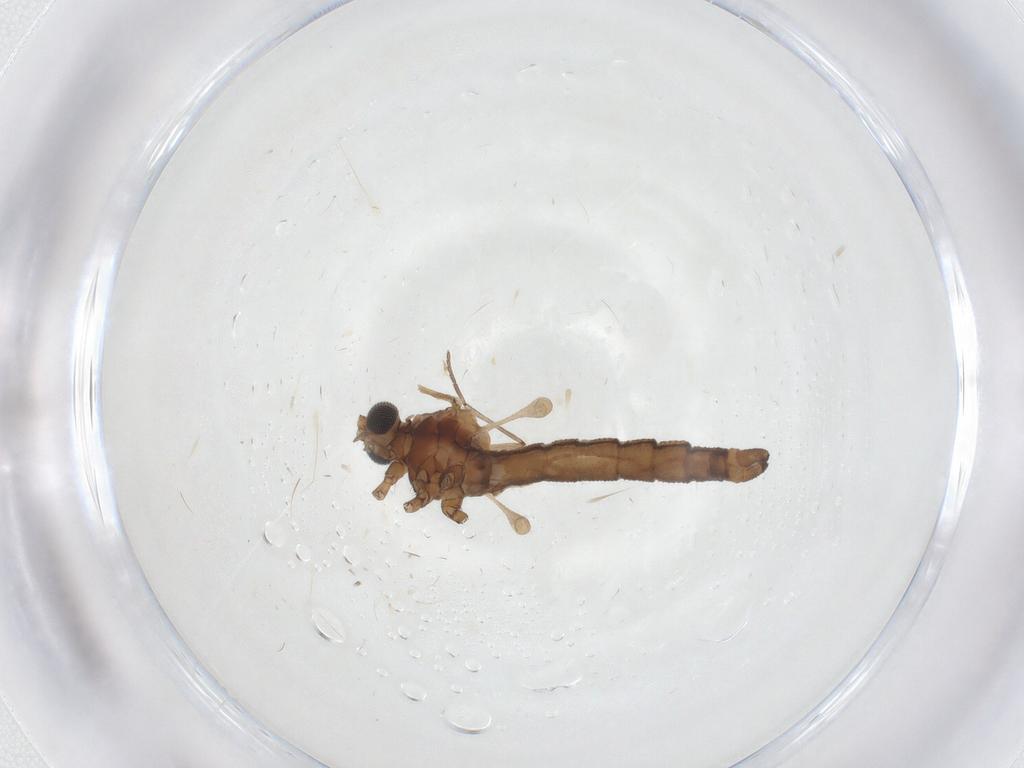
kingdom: Animalia
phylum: Arthropoda
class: Insecta
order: Diptera
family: Limoniidae
